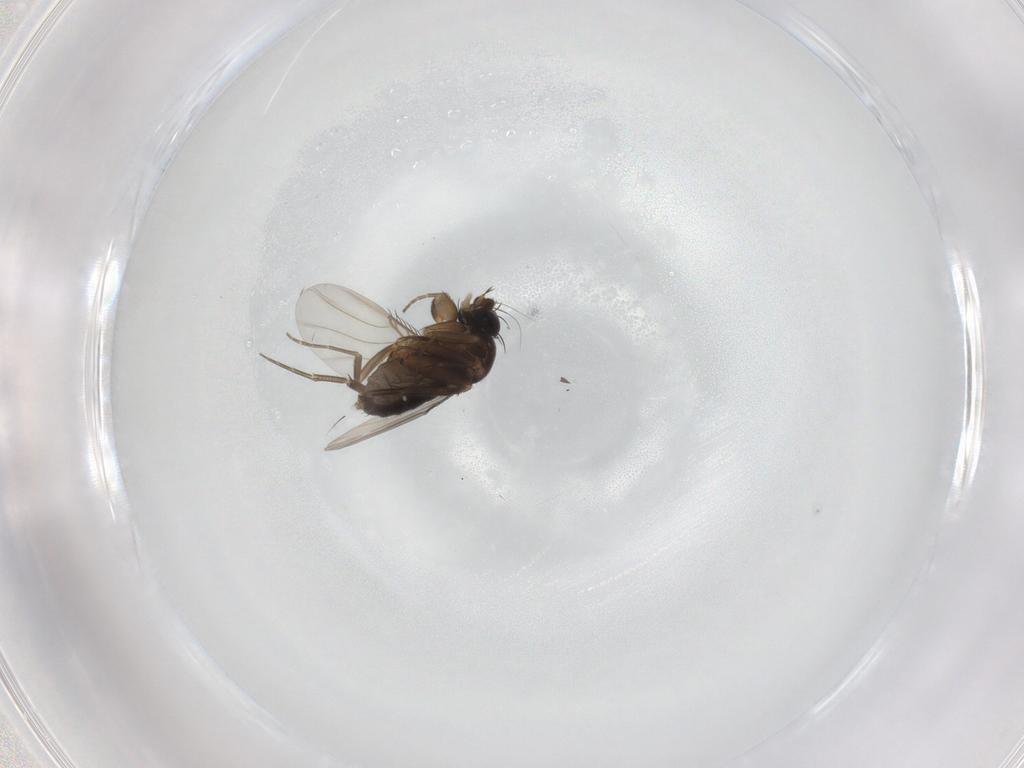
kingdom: Animalia
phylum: Arthropoda
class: Insecta
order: Diptera
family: Phoridae
